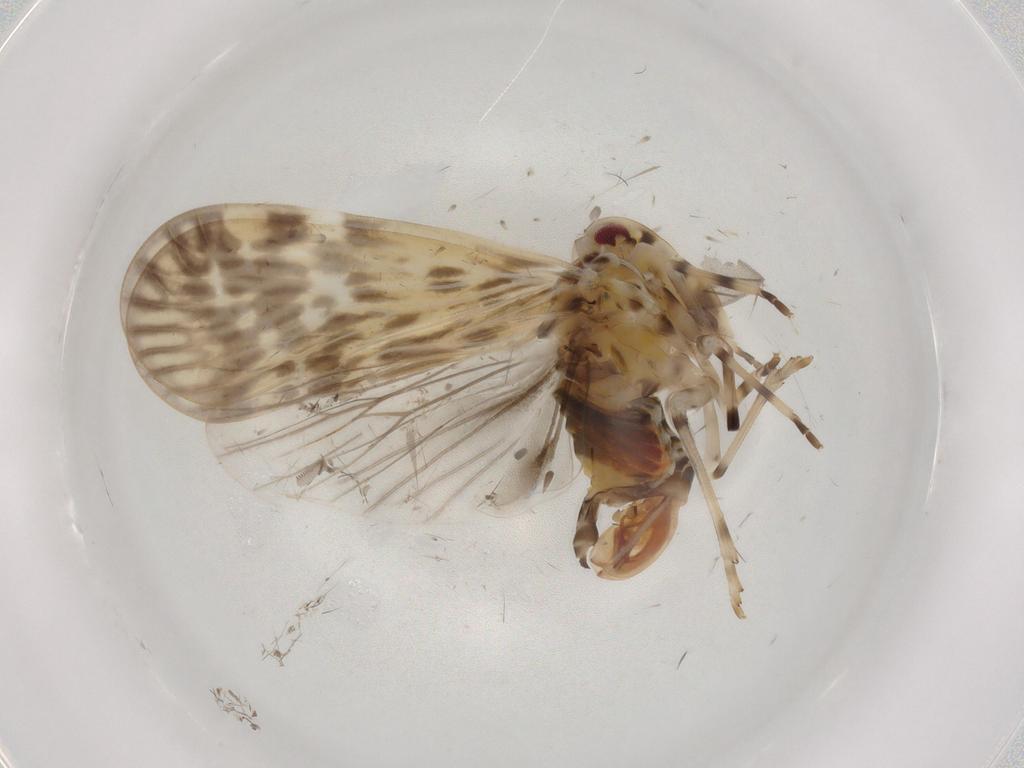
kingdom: Animalia
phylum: Arthropoda
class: Insecta
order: Hemiptera
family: Derbidae
